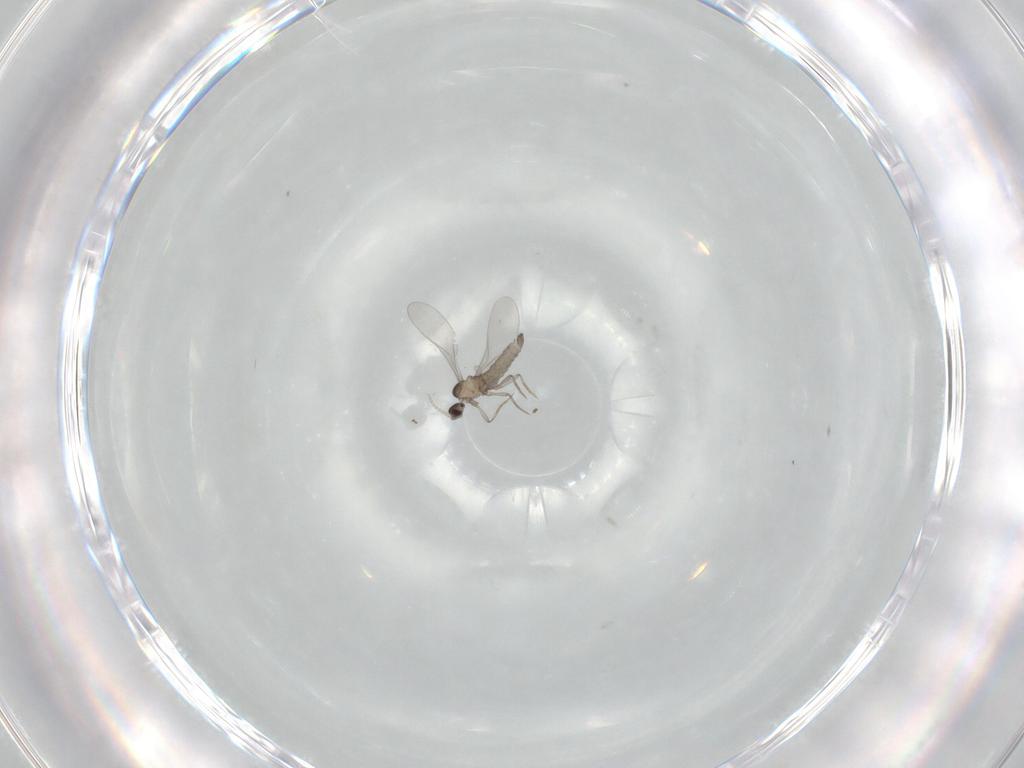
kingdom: Animalia
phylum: Arthropoda
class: Insecta
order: Diptera
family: Cecidomyiidae
